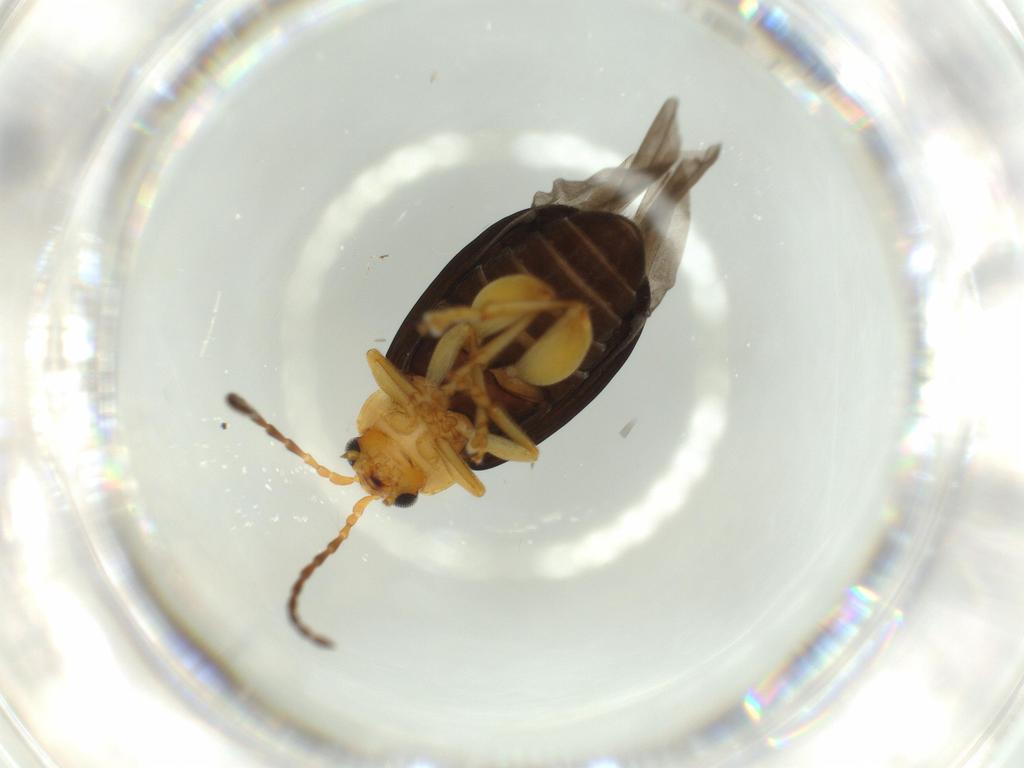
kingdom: Animalia
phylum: Arthropoda
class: Insecta
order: Coleoptera
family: Chrysomelidae
